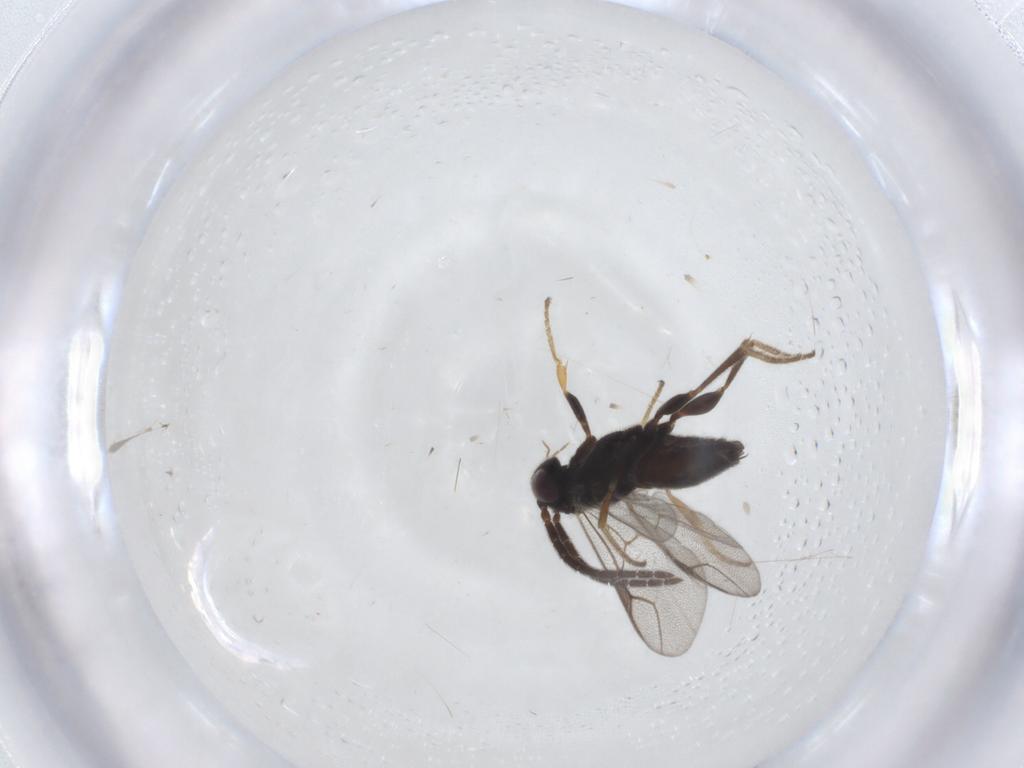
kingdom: Animalia
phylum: Arthropoda
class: Insecta
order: Hymenoptera
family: Dryinidae
